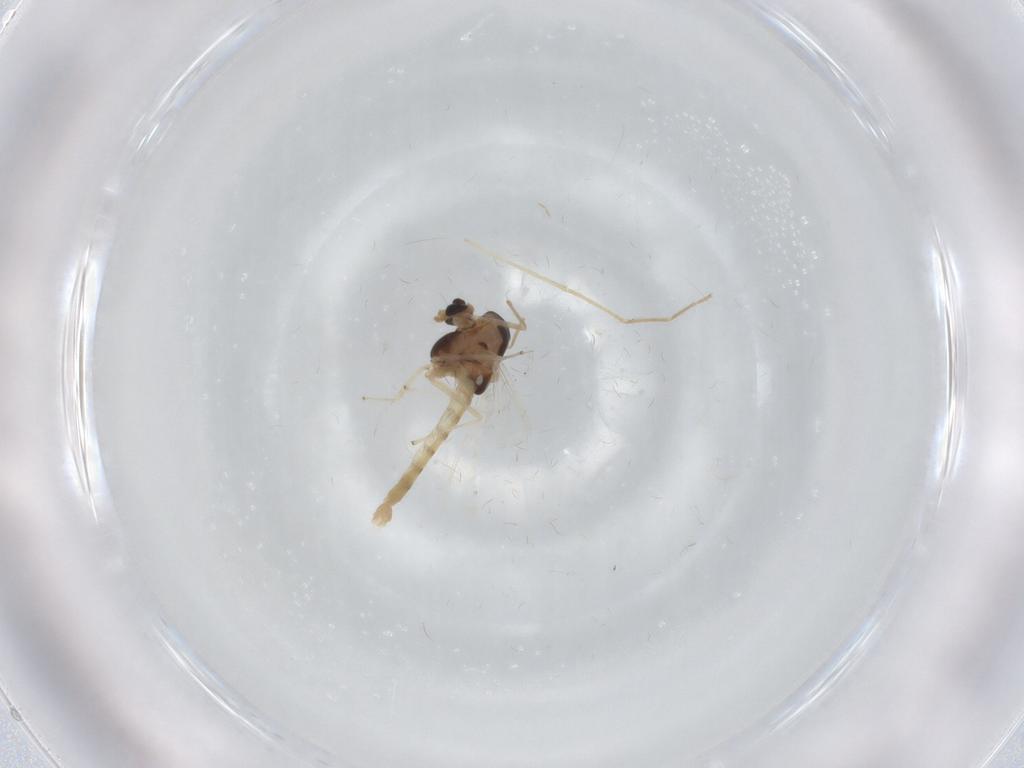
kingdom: Animalia
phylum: Arthropoda
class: Insecta
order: Diptera
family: Chironomidae
